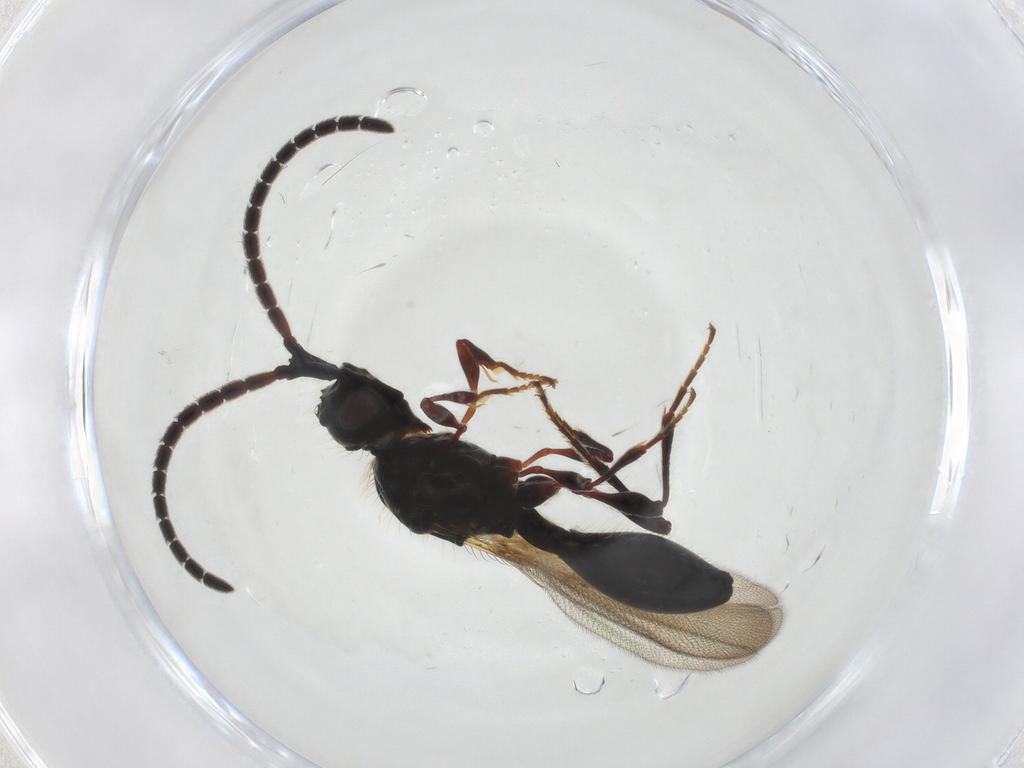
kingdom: Animalia
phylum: Arthropoda
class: Insecta
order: Hymenoptera
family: Diapriidae
